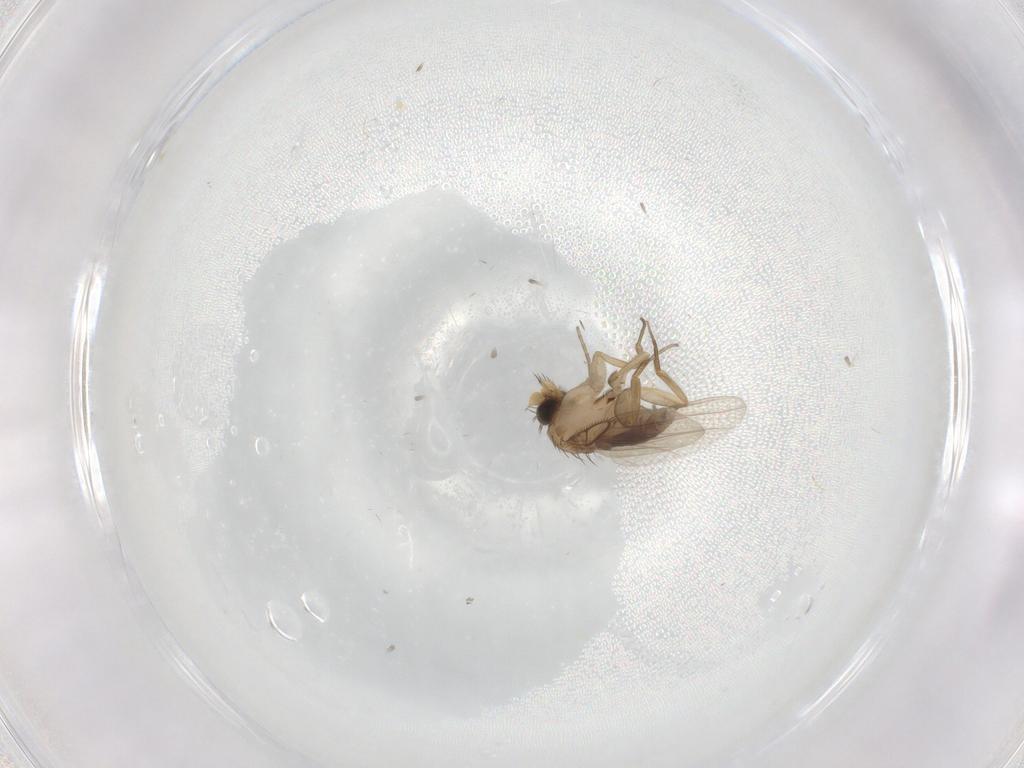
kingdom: Animalia
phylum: Arthropoda
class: Insecta
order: Diptera
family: Phoridae
